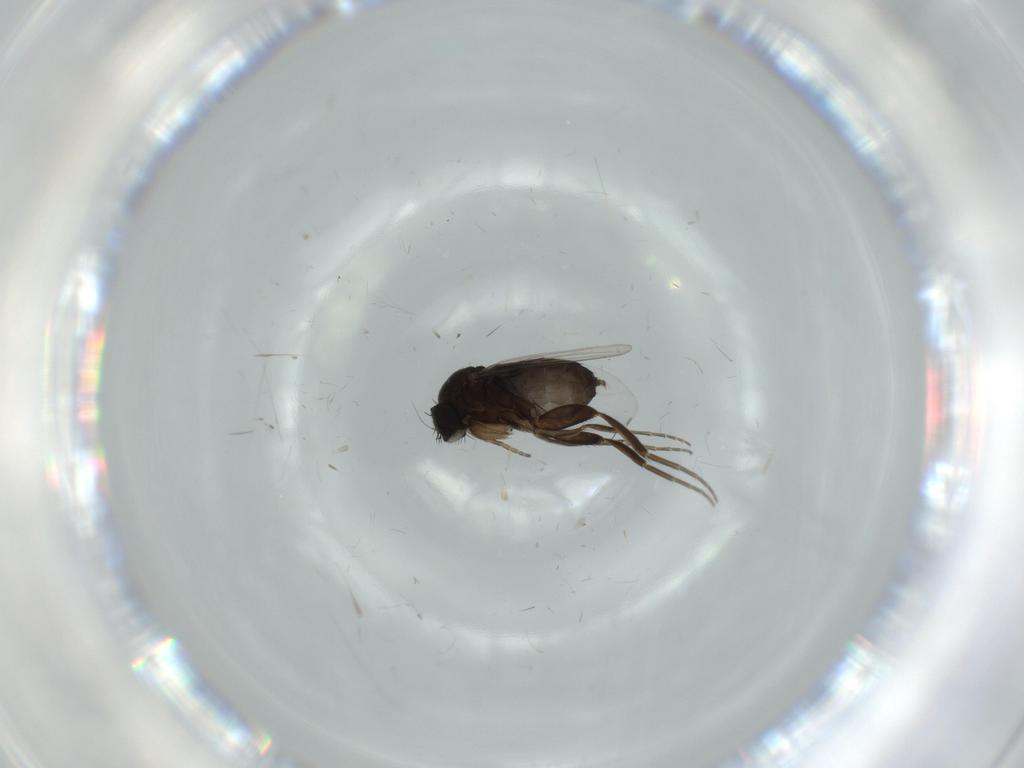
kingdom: Animalia
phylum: Arthropoda
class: Insecta
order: Diptera
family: Phoridae
